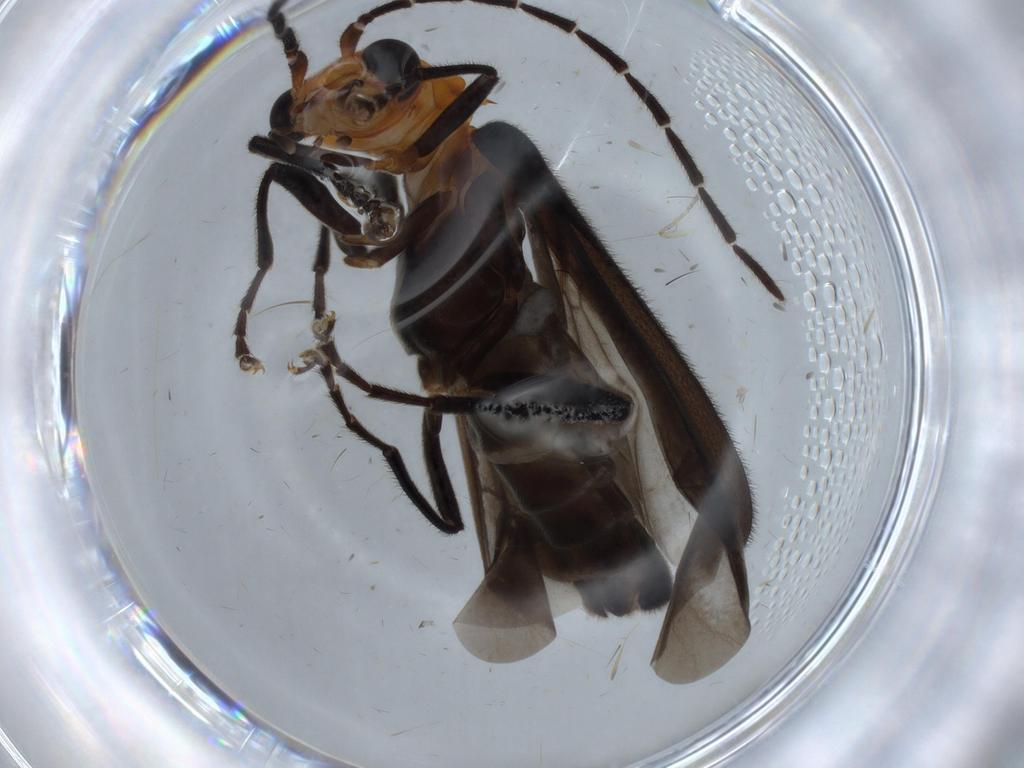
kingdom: Animalia
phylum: Arthropoda
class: Insecta
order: Coleoptera
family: Cantharidae
